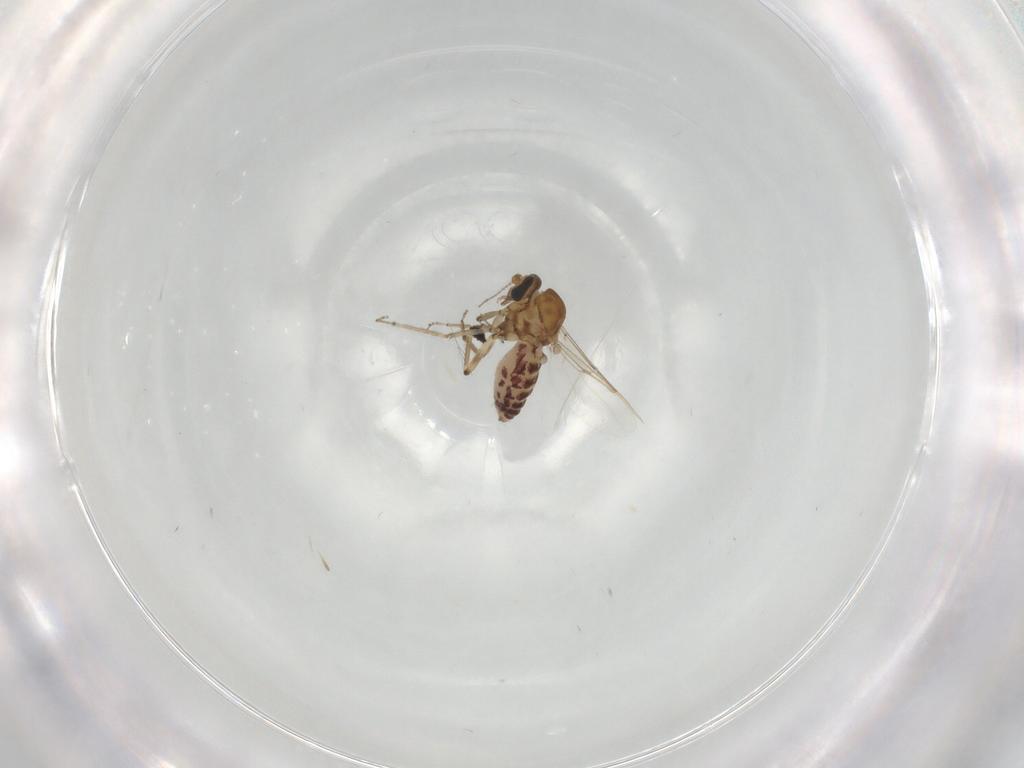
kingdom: Animalia
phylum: Arthropoda
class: Insecta
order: Diptera
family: Ceratopogonidae
